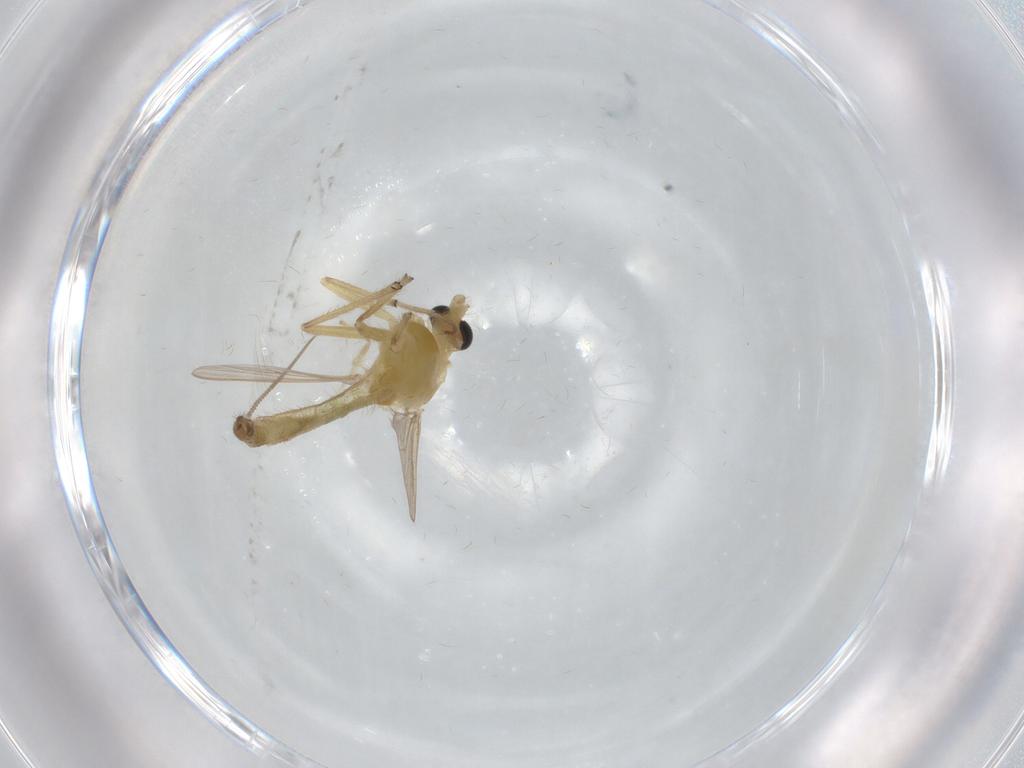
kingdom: Animalia
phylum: Arthropoda
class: Insecta
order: Diptera
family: Chironomidae
